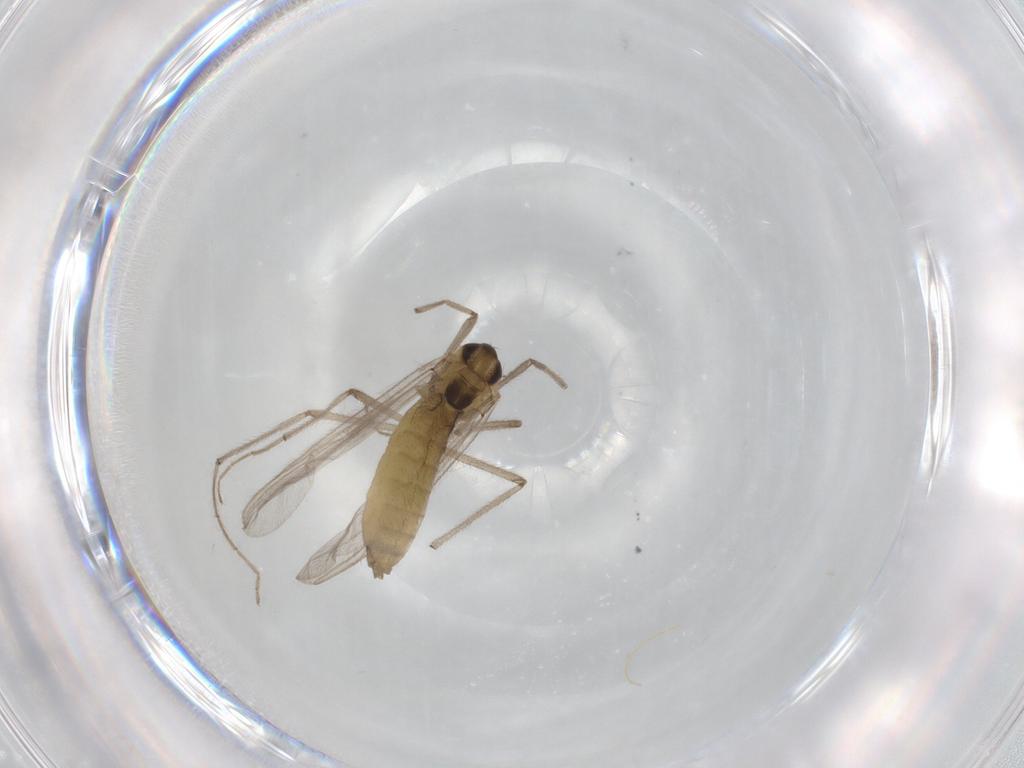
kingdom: Animalia
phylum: Arthropoda
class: Insecta
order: Diptera
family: Chironomidae
